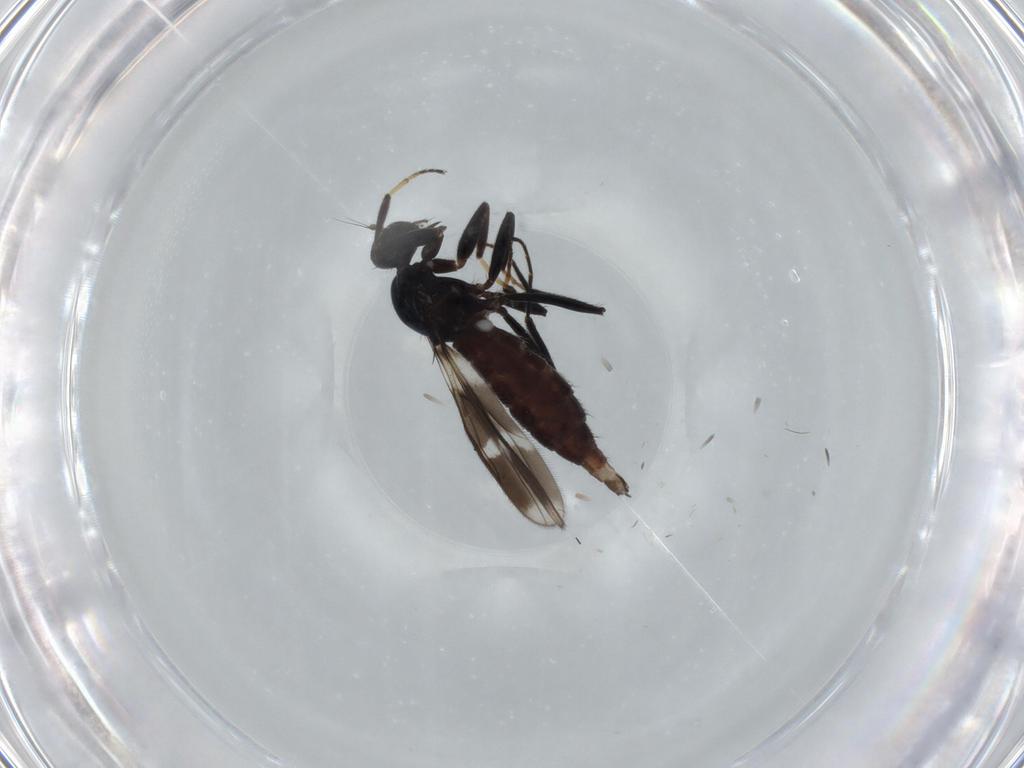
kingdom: Animalia
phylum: Arthropoda
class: Insecta
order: Diptera
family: Hybotidae
